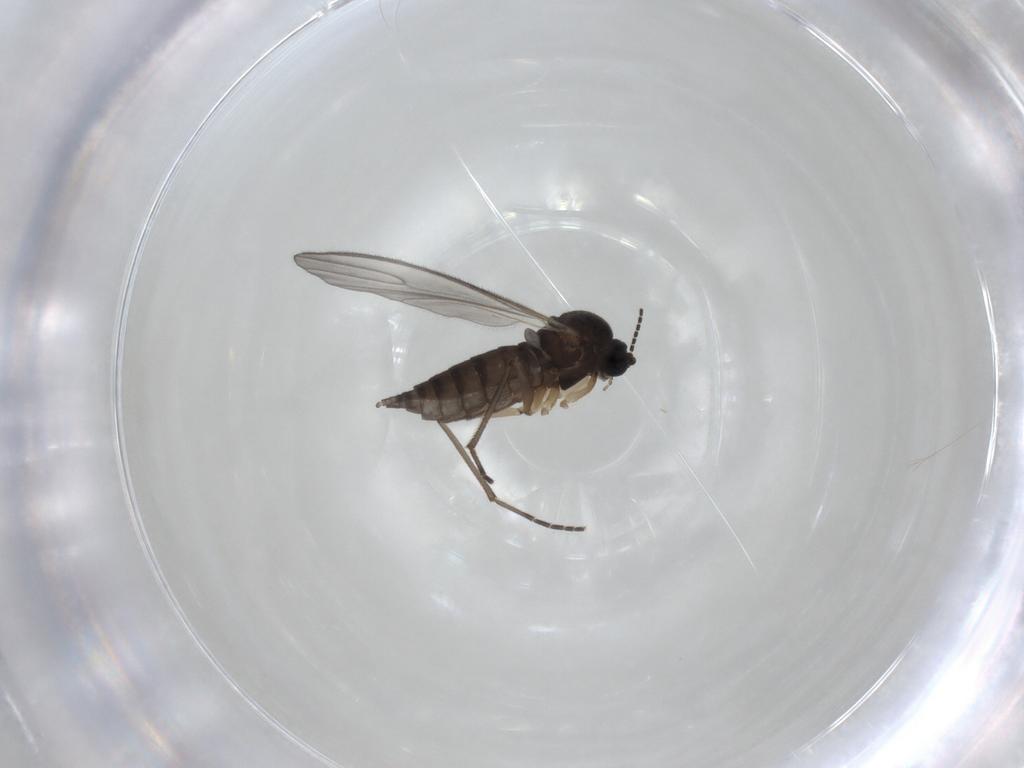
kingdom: Animalia
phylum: Arthropoda
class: Insecta
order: Diptera
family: Sciaridae
